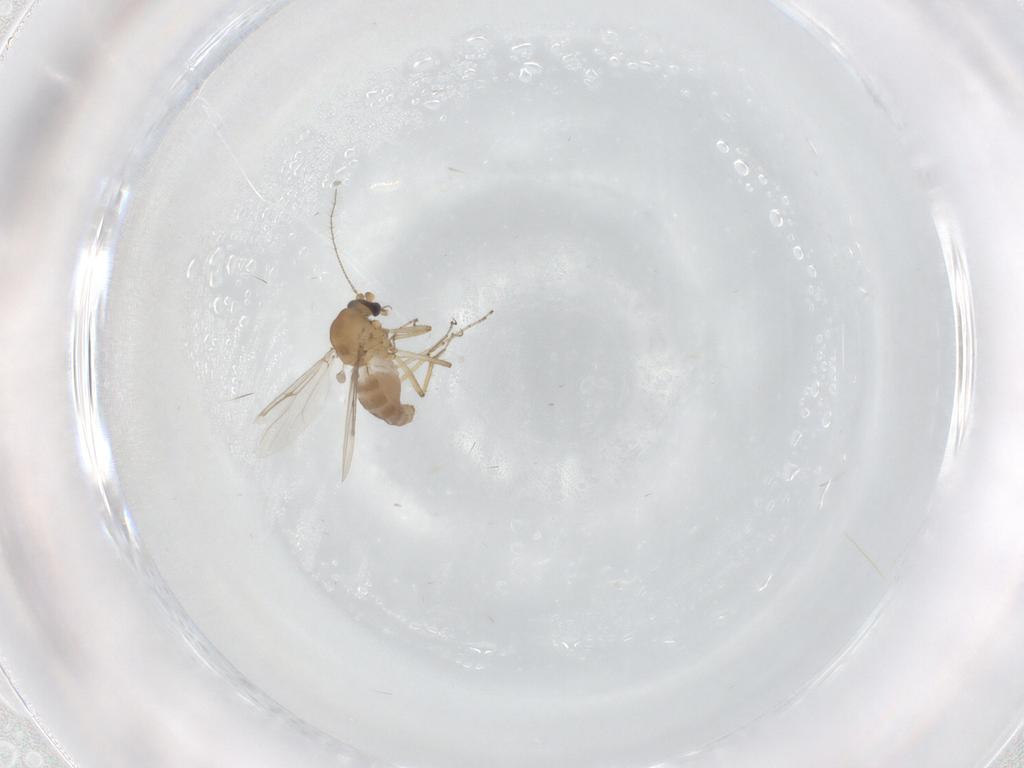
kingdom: Animalia
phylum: Arthropoda
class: Insecta
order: Diptera
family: Ceratopogonidae
